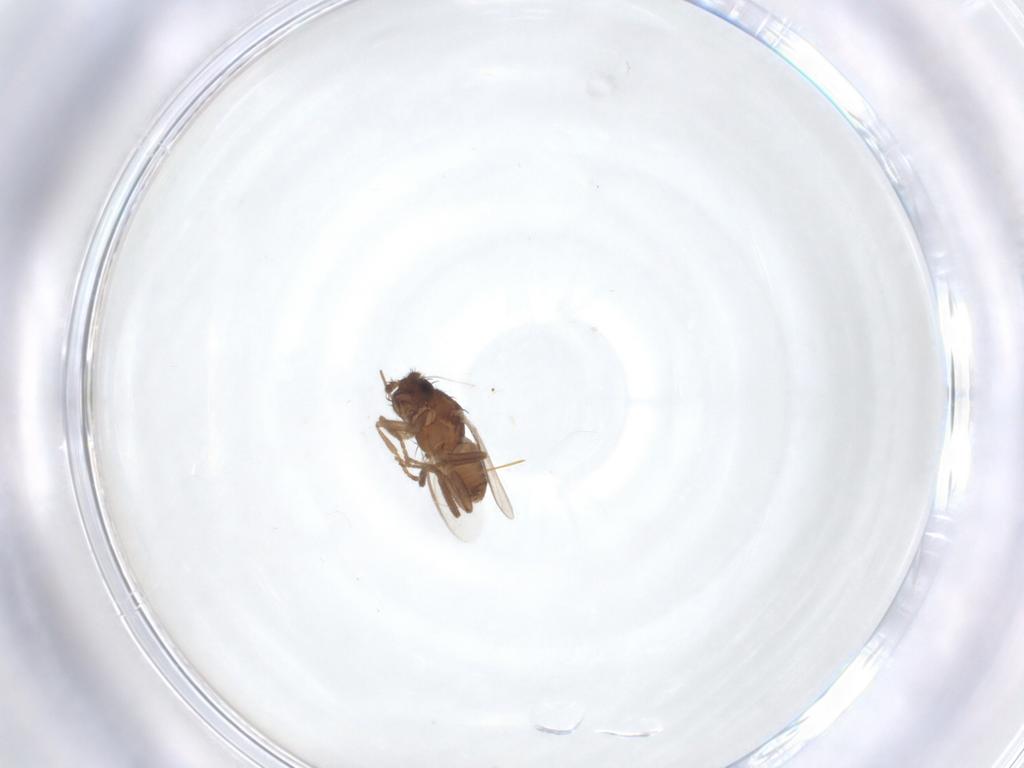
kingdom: Animalia
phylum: Arthropoda
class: Insecta
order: Diptera
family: Sphaeroceridae
